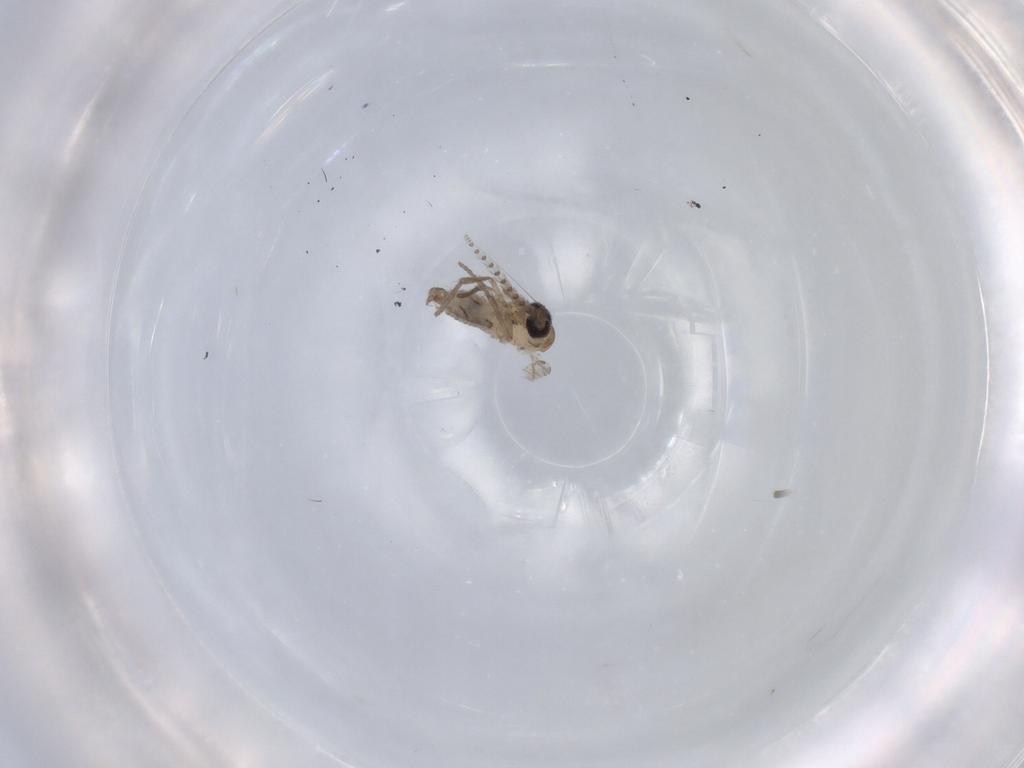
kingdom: Animalia
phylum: Arthropoda
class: Insecta
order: Diptera
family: Psychodidae
